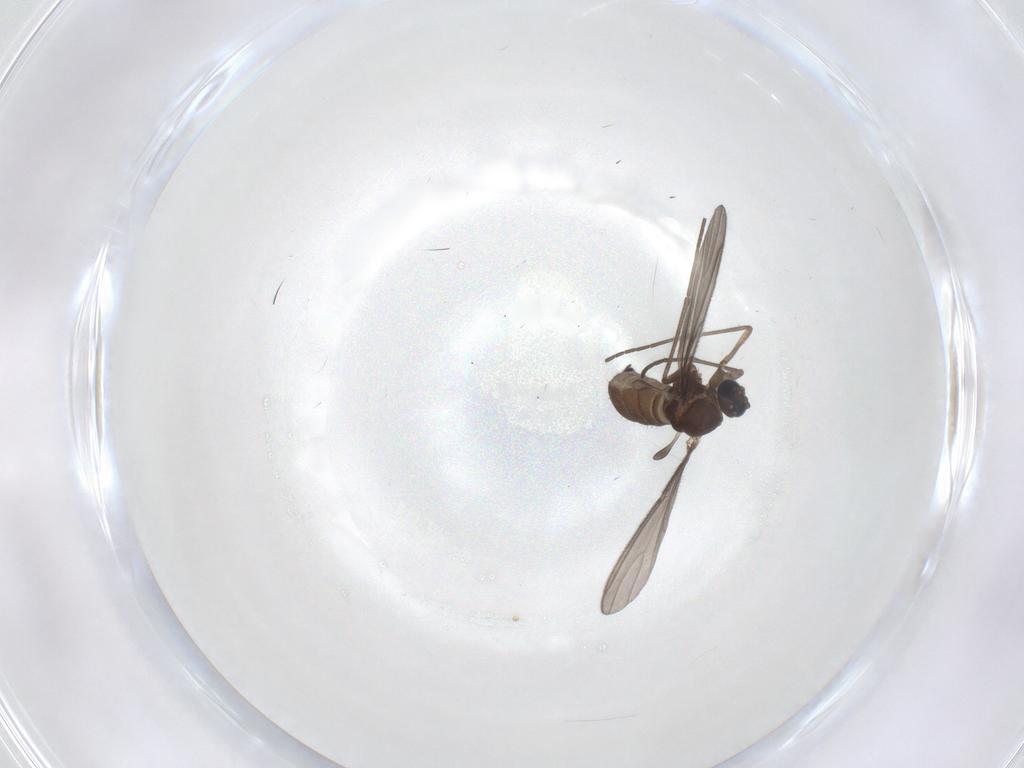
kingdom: Animalia
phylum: Arthropoda
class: Insecta
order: Diptera
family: Sciaridae
